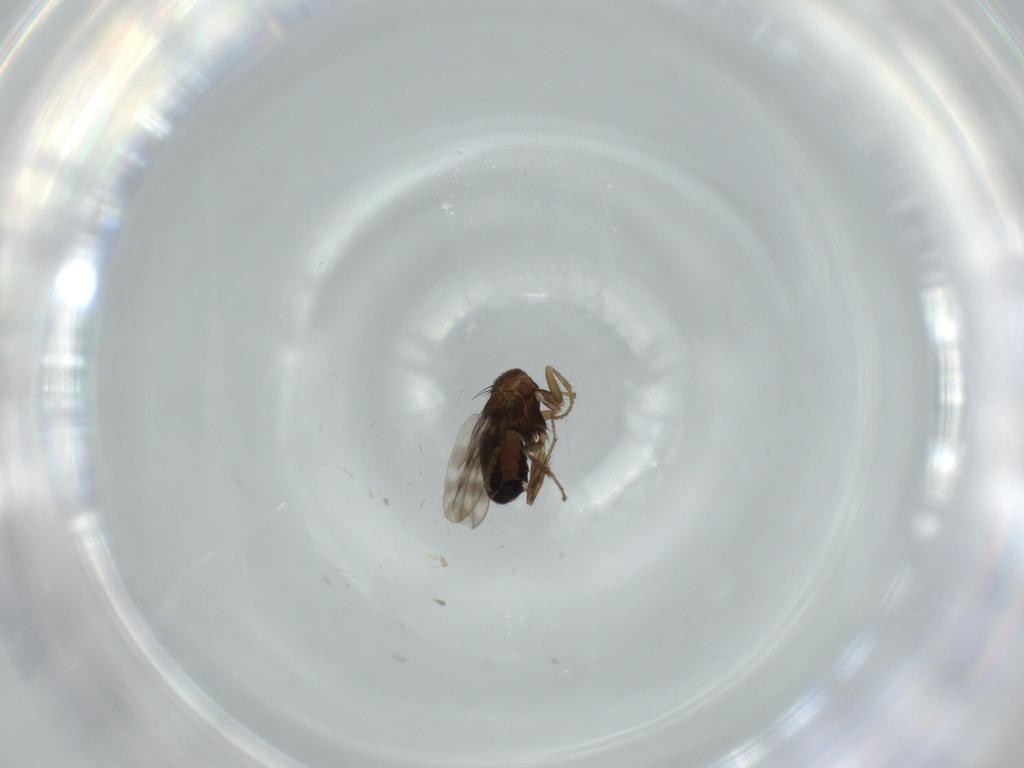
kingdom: Animalia
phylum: Arthropoda
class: Insecta
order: Diptera
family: Sphaeroceridae
